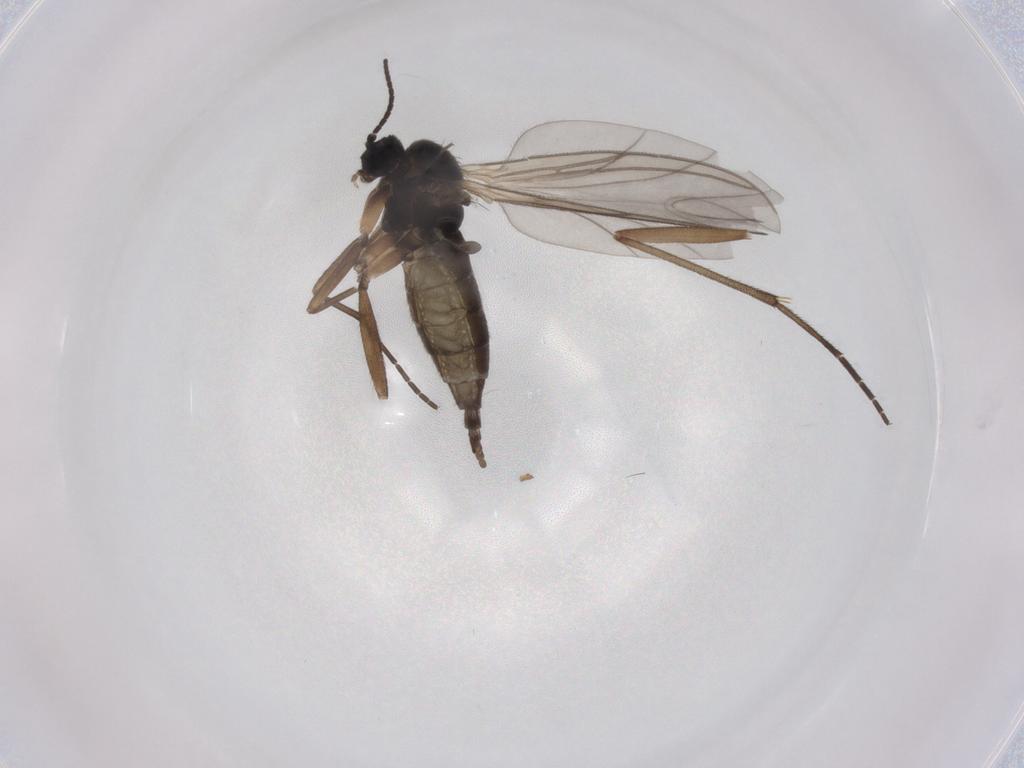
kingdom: Animalia
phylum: Arthropoda
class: Insecta
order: Diptera
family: Sciaridae
